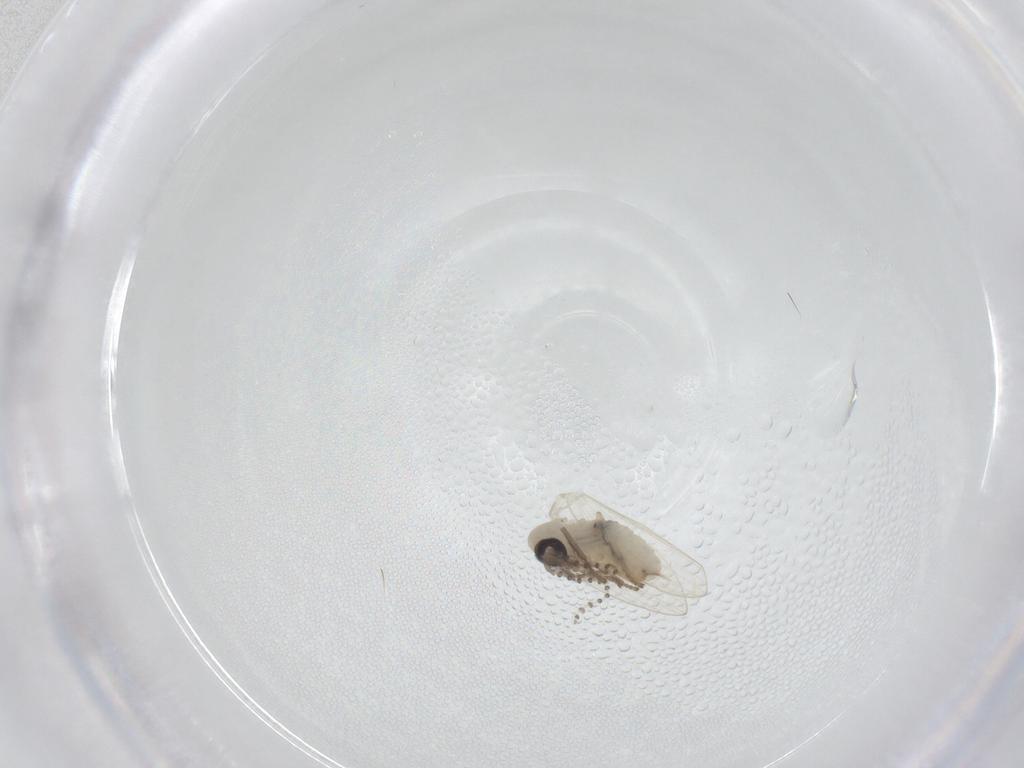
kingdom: Animalia
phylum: Arthropoda
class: Insecta
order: Diptera
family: Psychodidae
